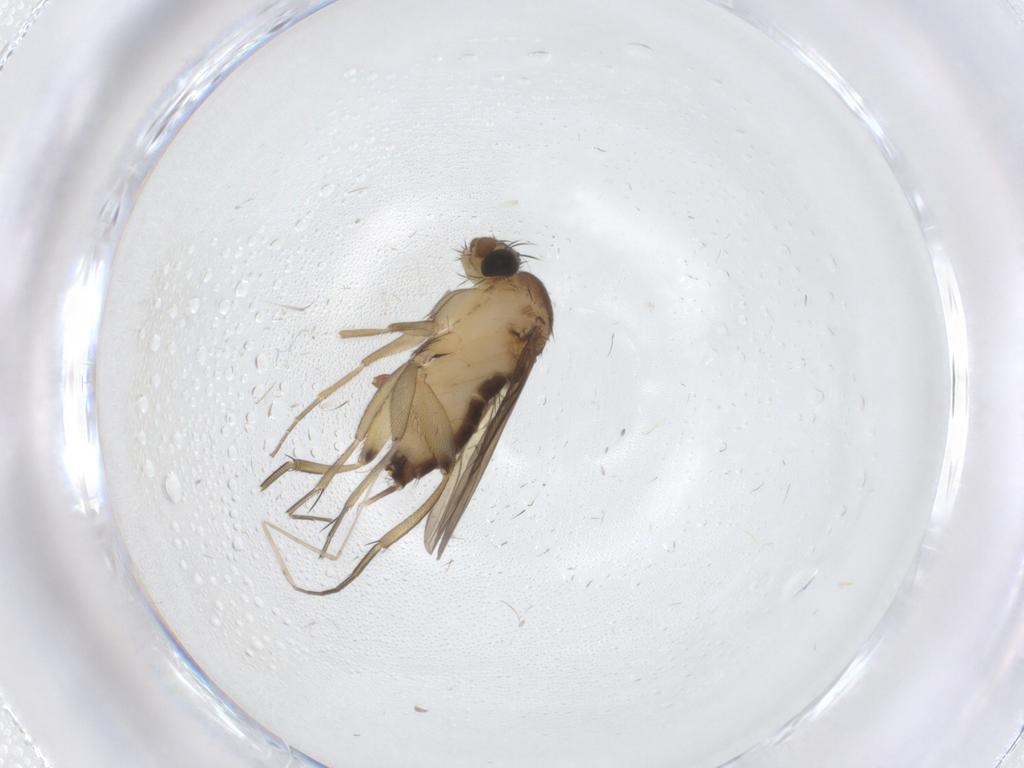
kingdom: Animalia
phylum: Arthropoda
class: Insecta
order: Diptera
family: Phoridae
